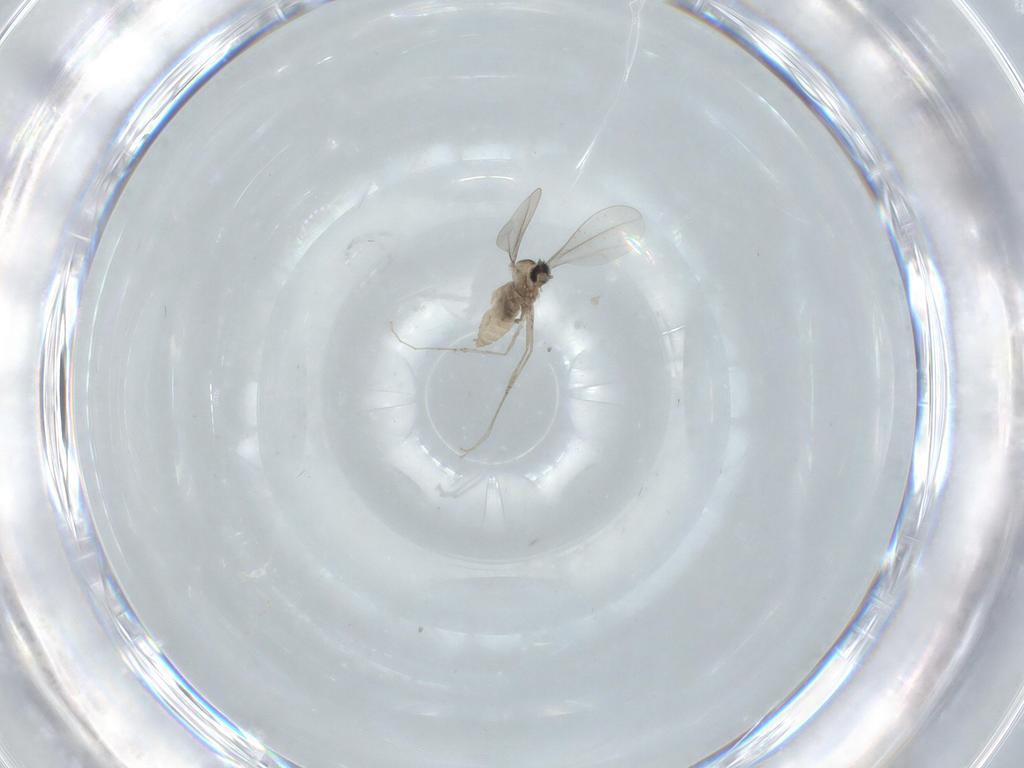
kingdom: Animalia
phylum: Arthropoda
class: Insecta
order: Diptera
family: Cecidomyiidae
